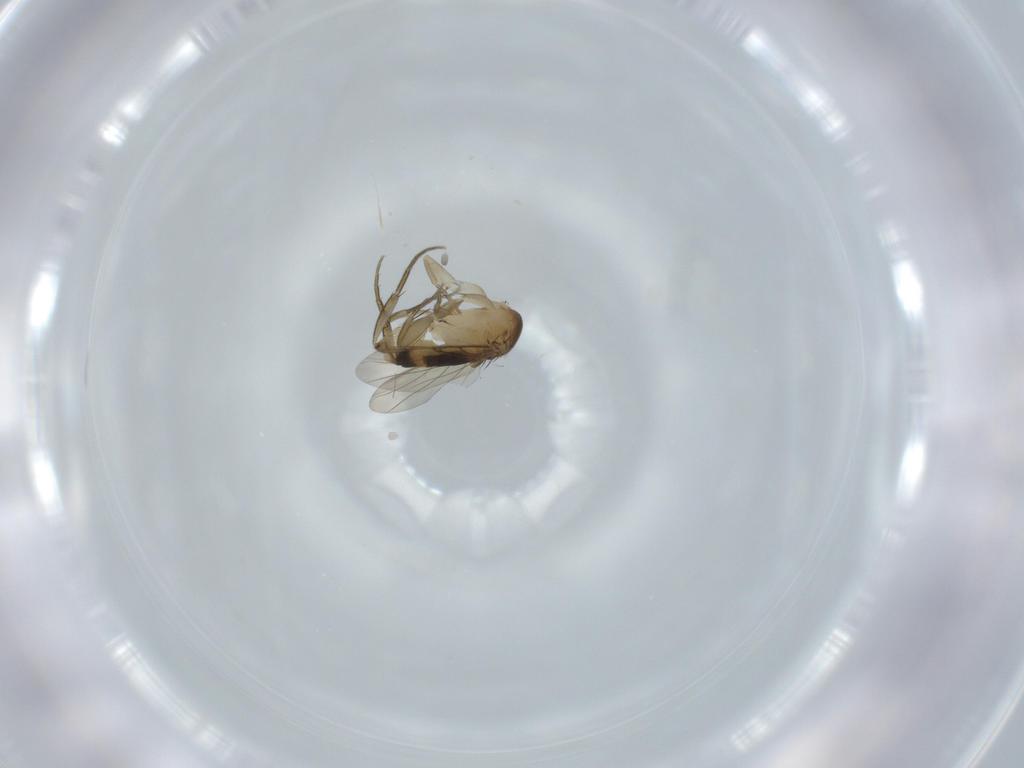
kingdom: Animalia
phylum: Arthropoda
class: Insecta
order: Diptera
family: Phoridae
